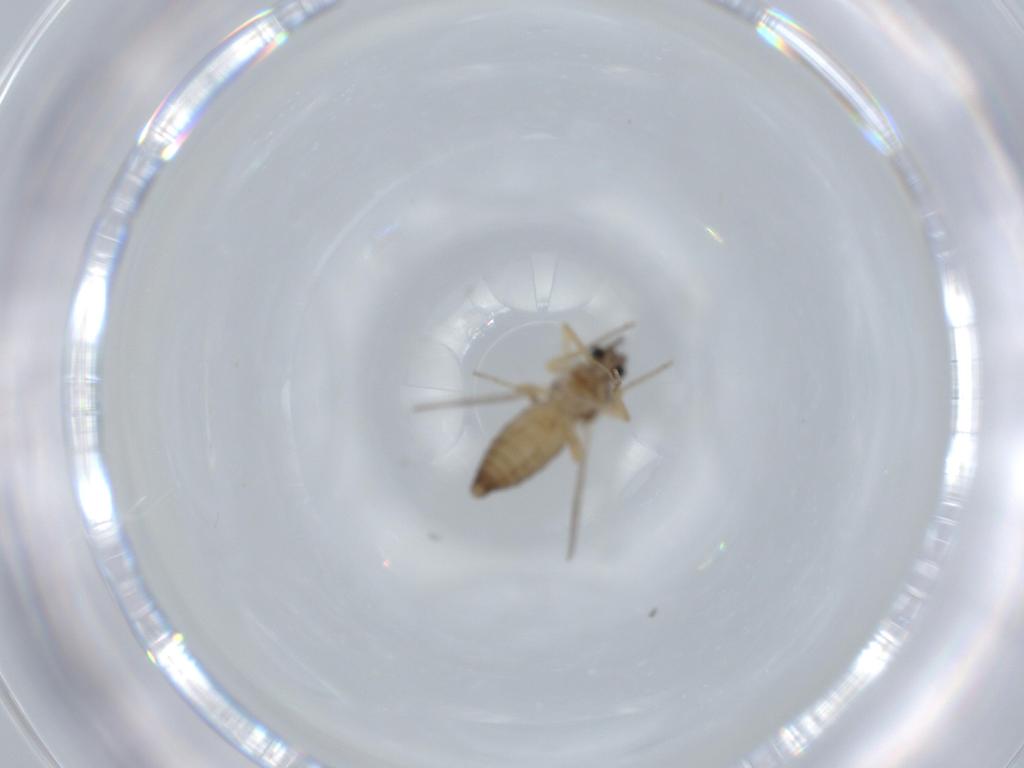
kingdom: Animalia
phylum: Arthropoda
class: Insecta
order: Diptera
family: Ceratopogonidae
